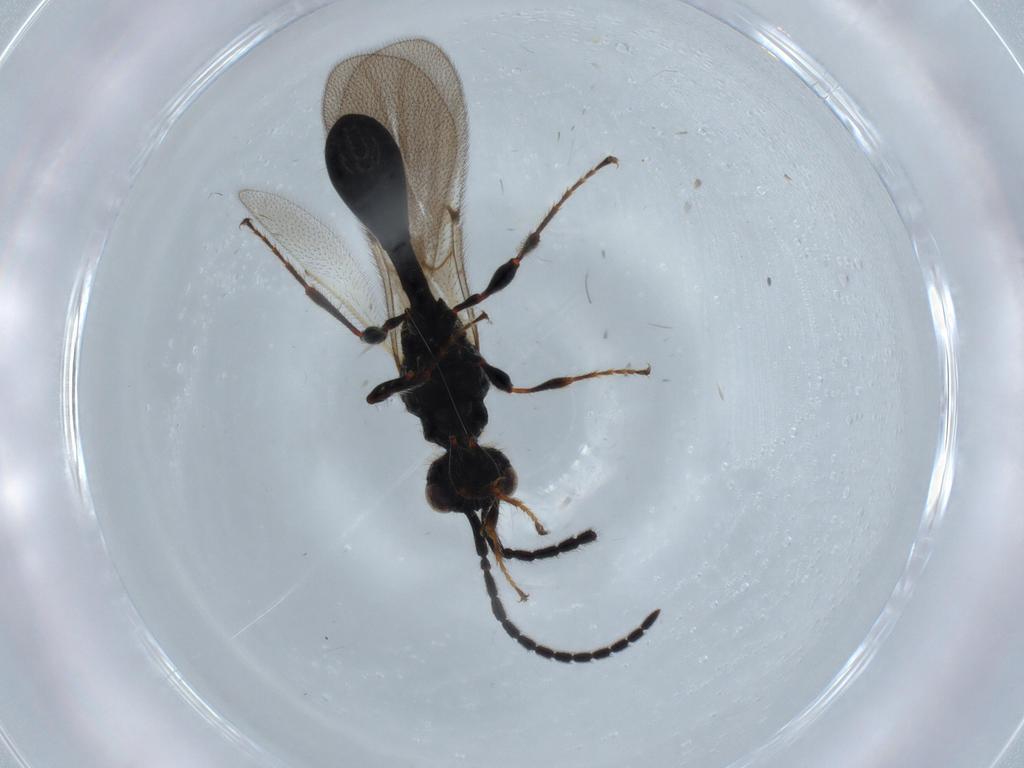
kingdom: Animalia
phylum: Arthropoda
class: Insecta
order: Hymenoptera
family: Diapriidae
